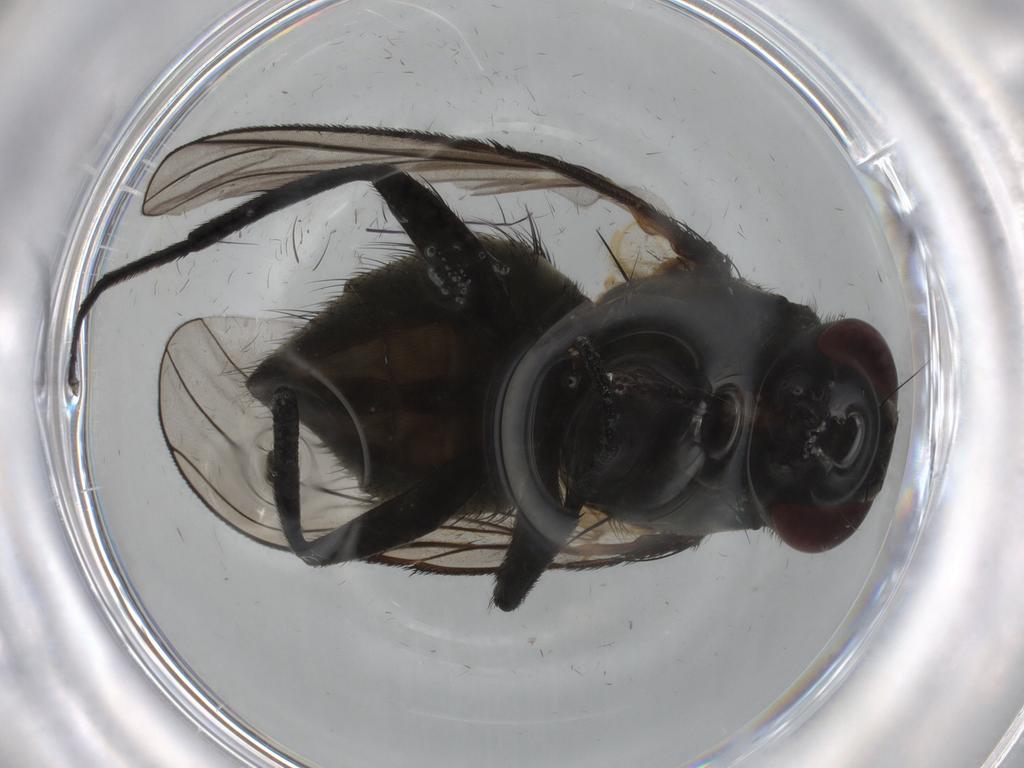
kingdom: Animalia
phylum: Arthropoda
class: Insecta
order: Diptera
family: Muscidae
